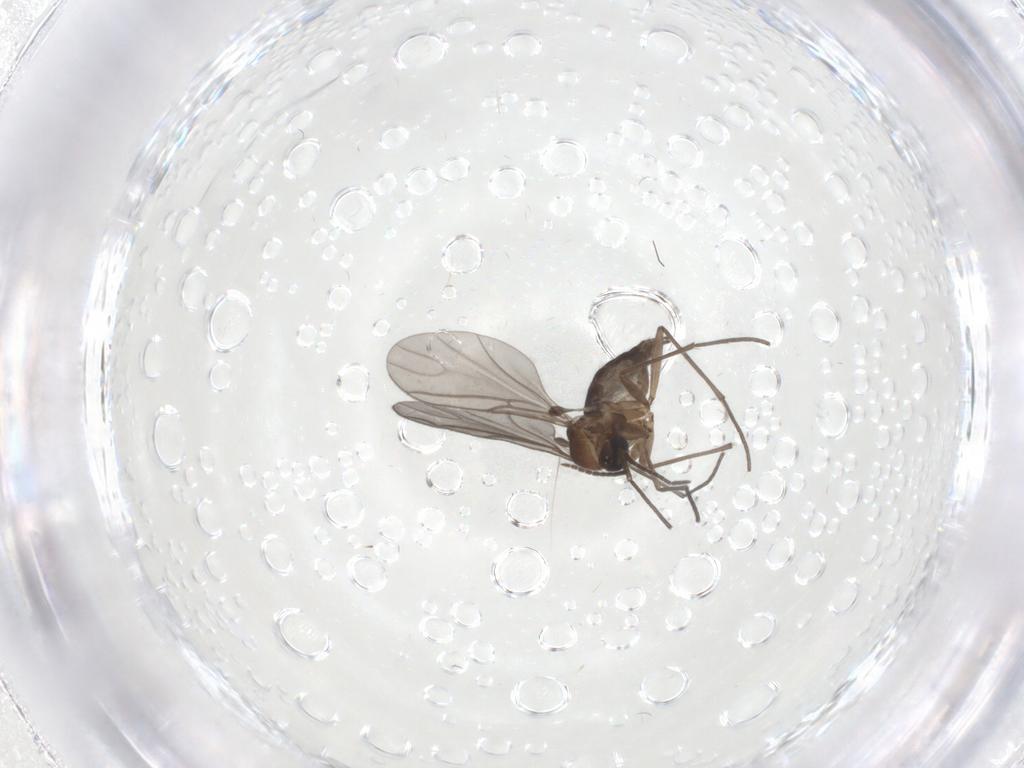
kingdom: Animalia
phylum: Arthropoda
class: Insecta
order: Diptera
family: Sciaridae
